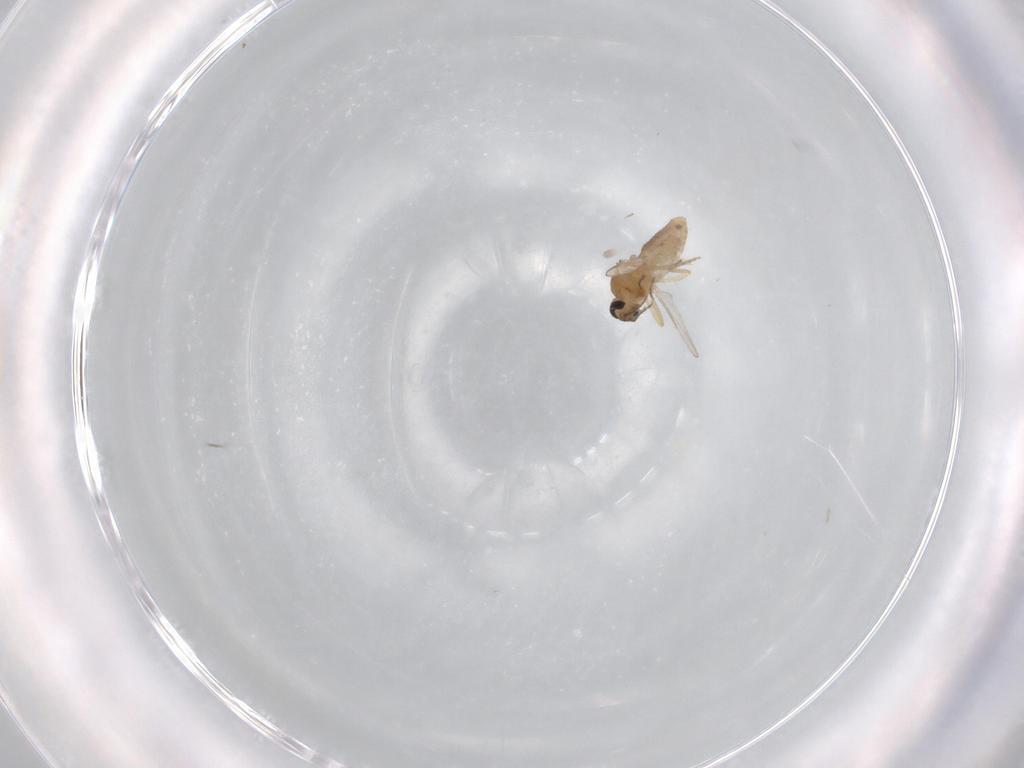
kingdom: Animalia
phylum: Arthropoda
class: Insecta
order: Diptera
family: Ceratopogonidae
